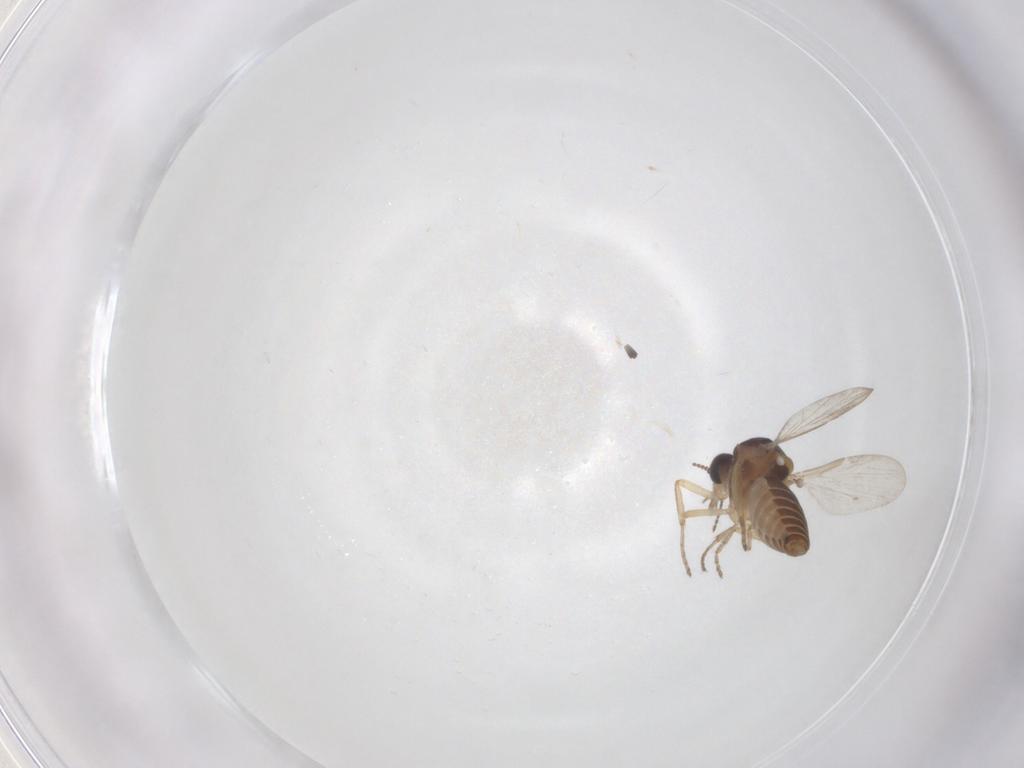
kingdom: Animalia
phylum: Arthropoda
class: Insecta
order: Diptera
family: Ceratopogonidae
